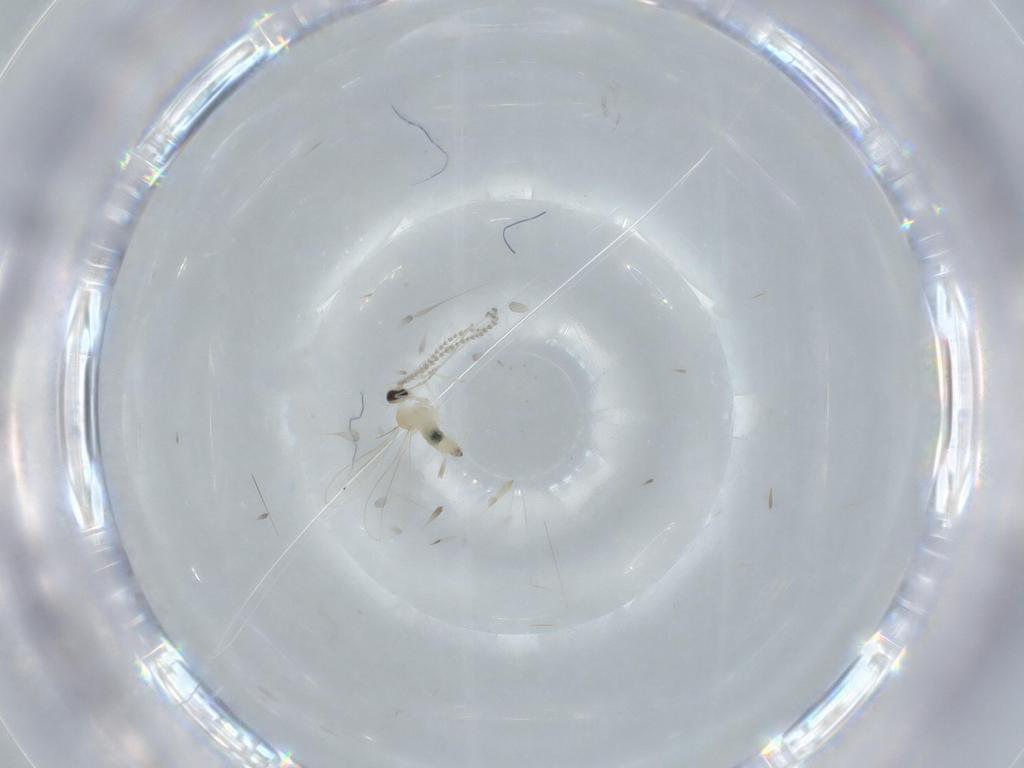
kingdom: Animalia
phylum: Arthropoda
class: Insecta
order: Diptera
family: Cecidomyiidae
